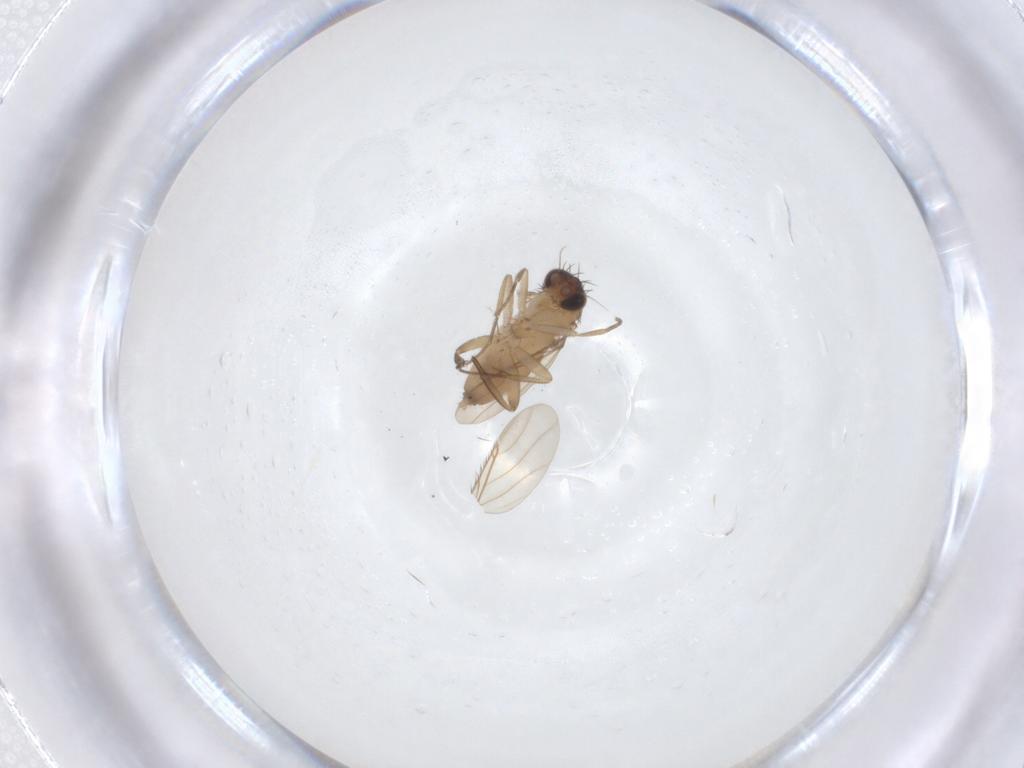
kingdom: Animalia
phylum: Arthropoda
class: Insecta
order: Diptera
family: Phoridae
